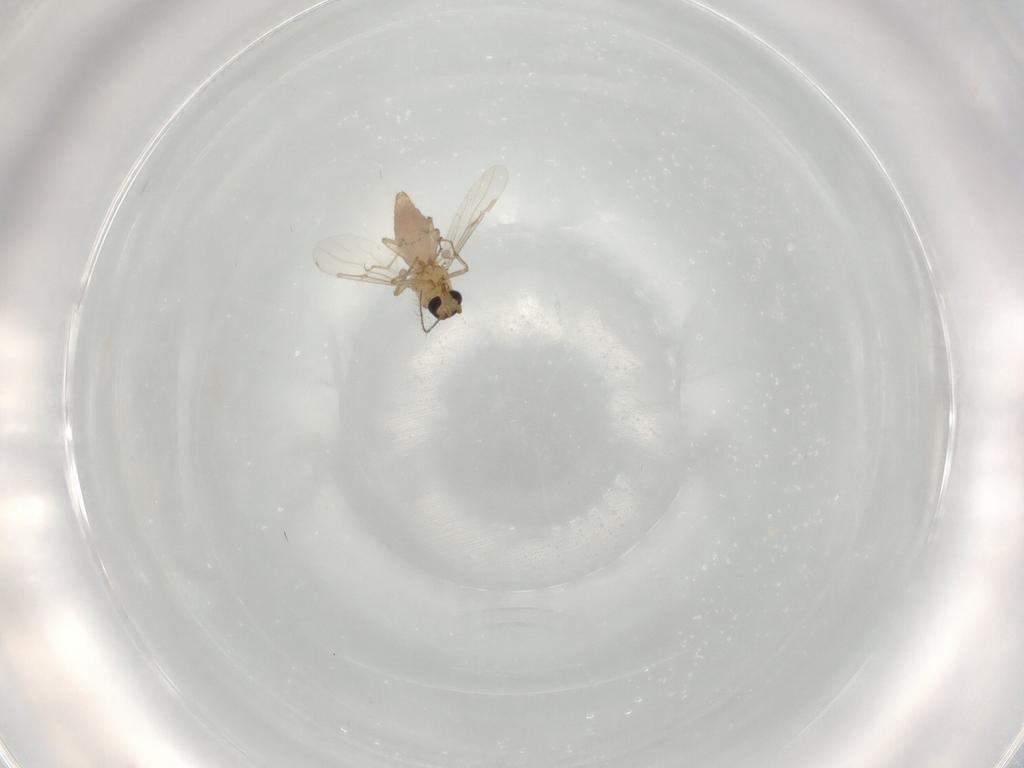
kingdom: Animalia
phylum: Arthropoda
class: Insecta
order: Diptera
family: Ceratopogonidae
